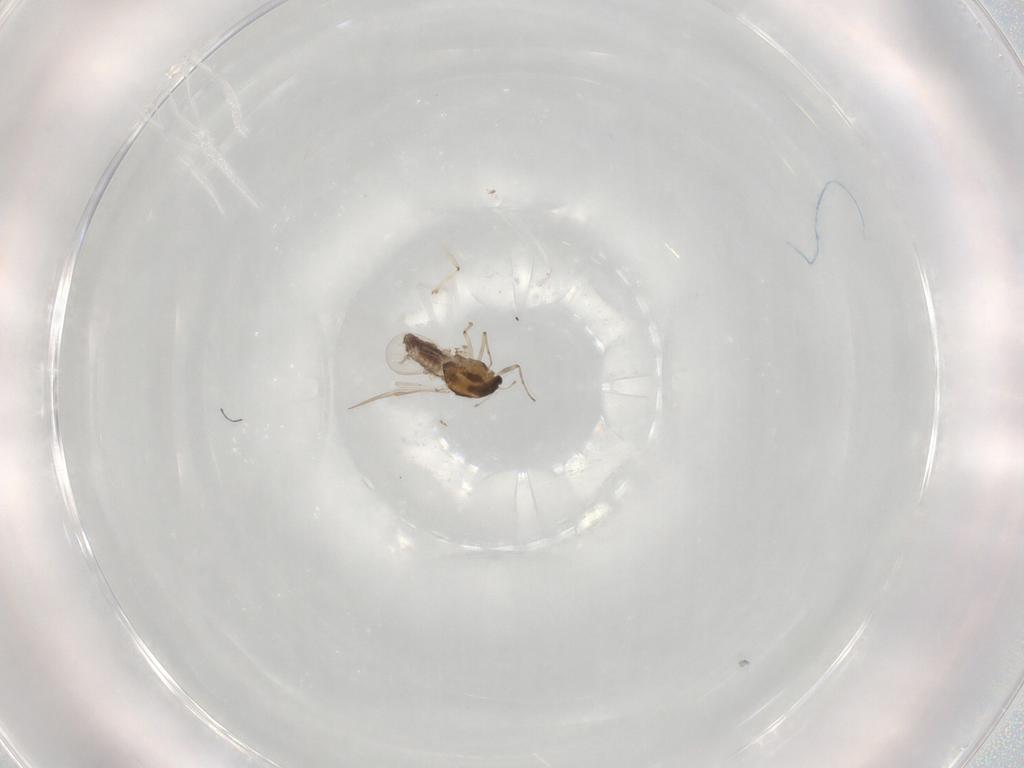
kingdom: Animalia
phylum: Arthropoda
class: Insecta
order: Diptera
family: Chironomidae
